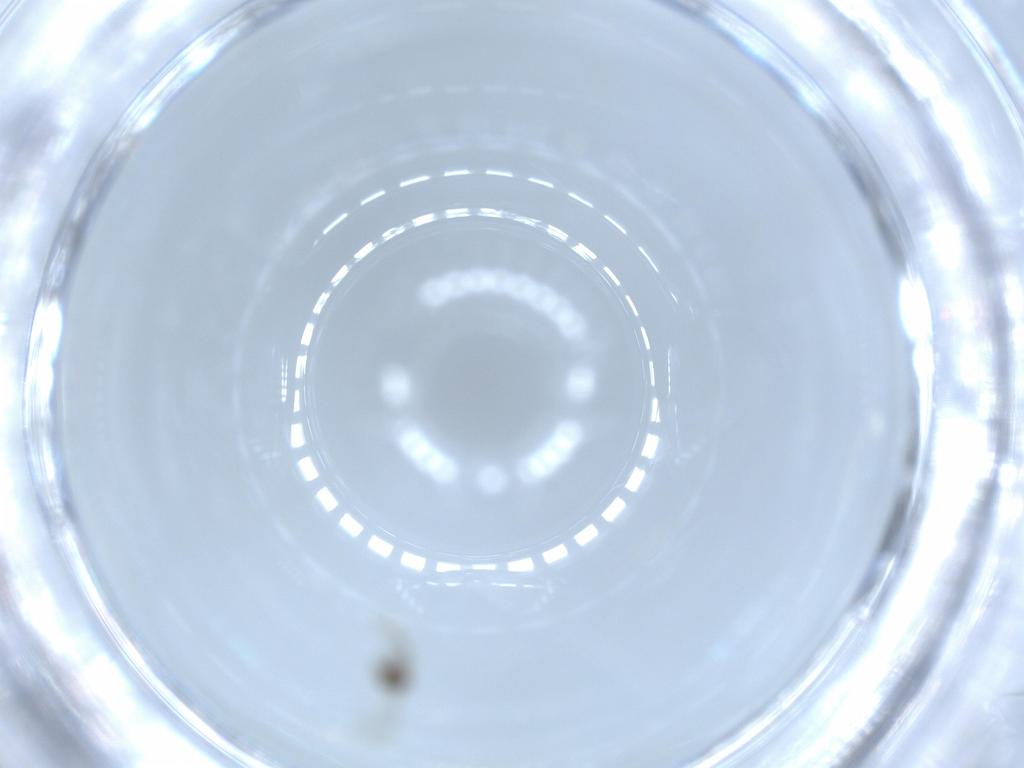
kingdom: Animalia
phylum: Arthropoda
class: Insecta
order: Diptera
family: Cecidomyiidae
